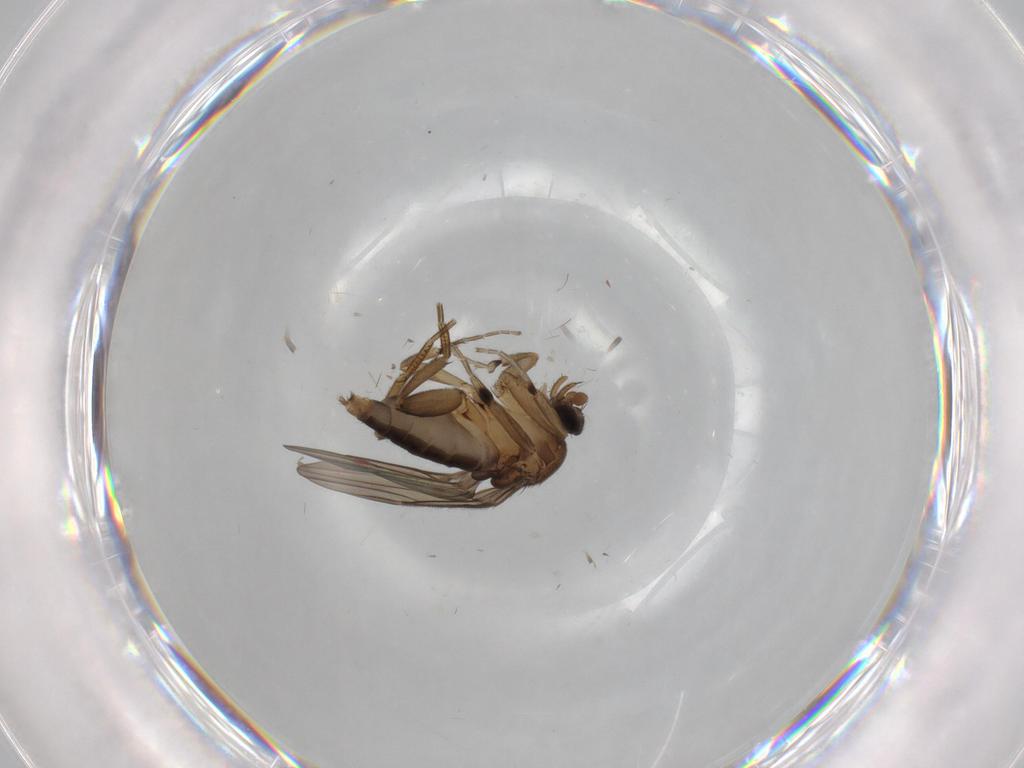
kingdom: Animalia
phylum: Arthropoda
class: Insecta
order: Diptera
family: Phoridae
